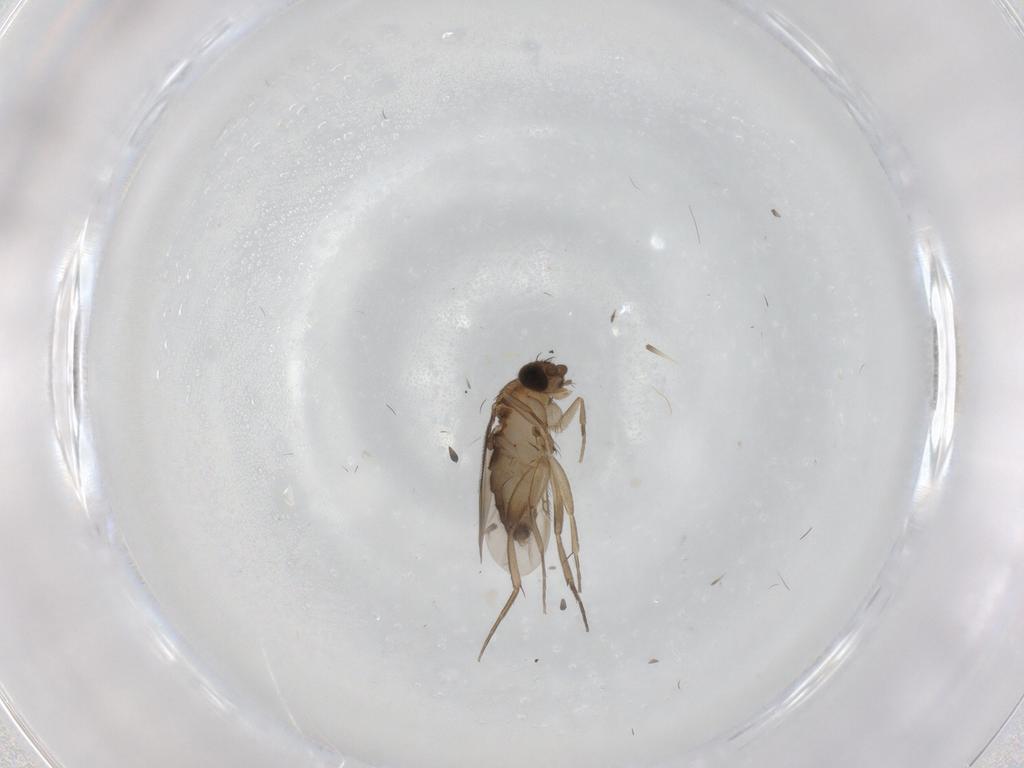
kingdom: Animalia
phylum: Arthropoda
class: Insecta
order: Diptera
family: Phoridae
